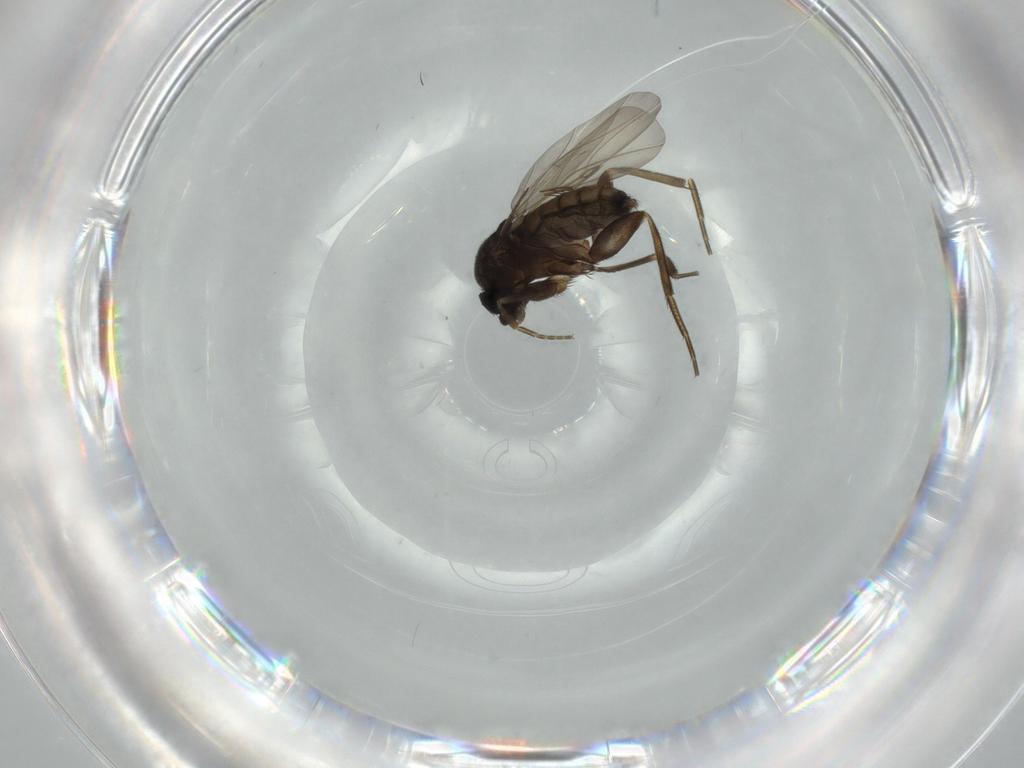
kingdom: Animalia
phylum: Arthropoda
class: Insecta
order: Diptera
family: Phoridae
